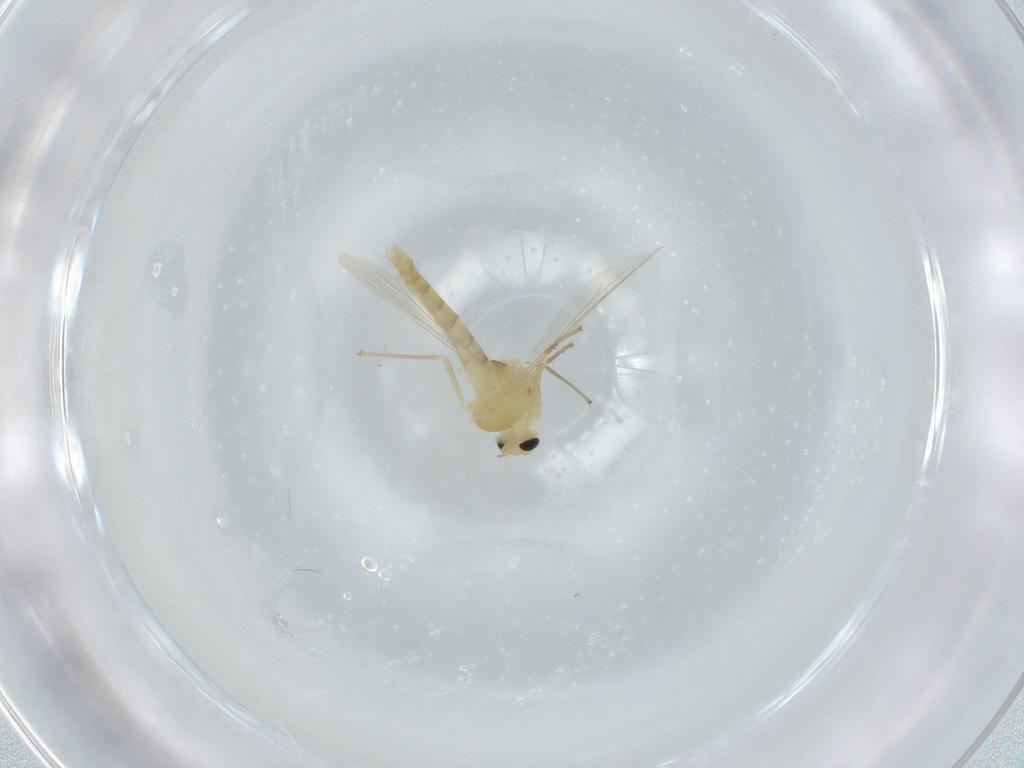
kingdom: Animalia
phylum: Arthropoda
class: Insecta
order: Diptera
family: Chironomidae
